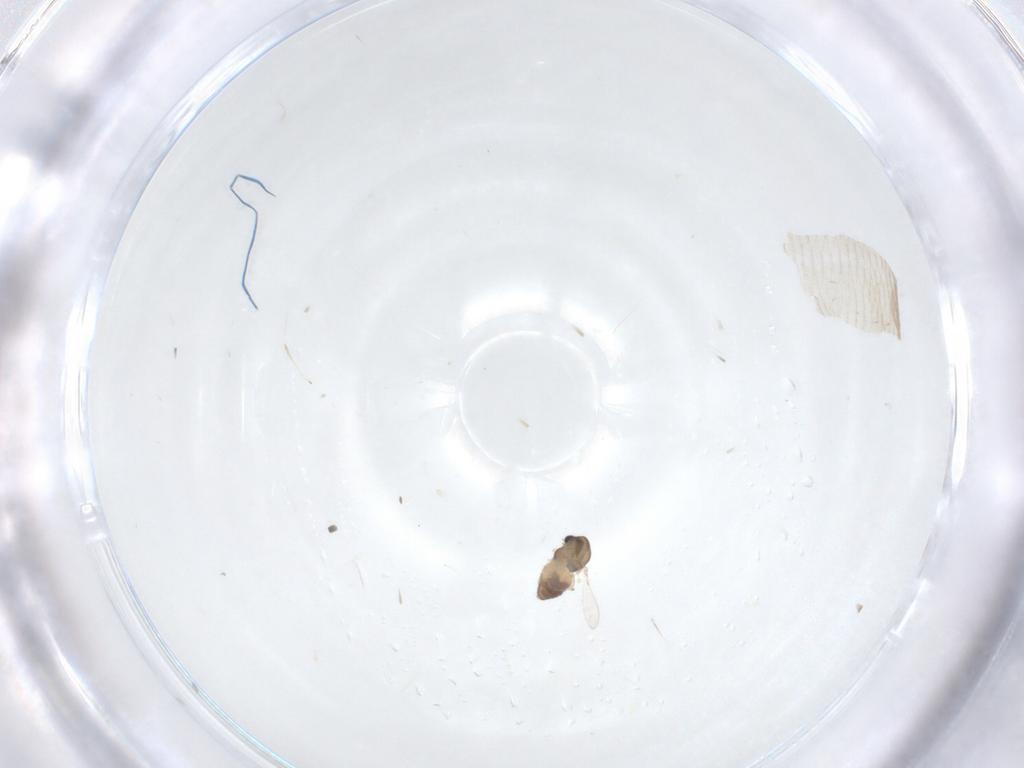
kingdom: Animalia
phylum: Arthropoda
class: Insecta
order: Diptera
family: Chironomidae
